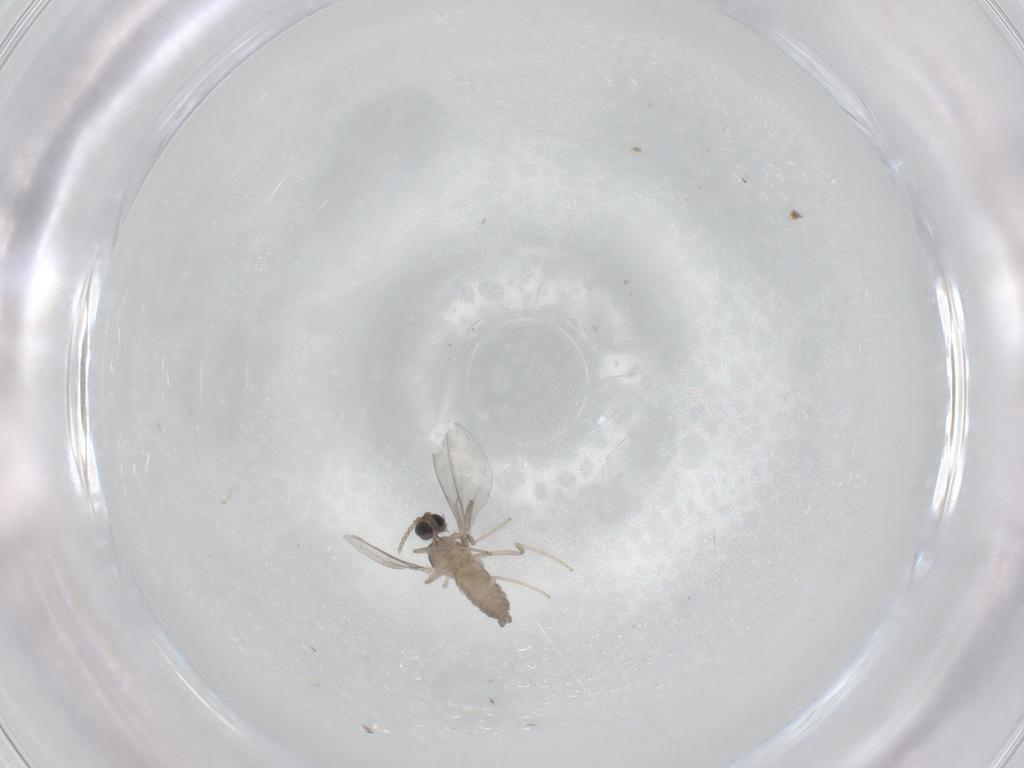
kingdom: Animalia
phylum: Arthropoda
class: Insecta
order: Diptera
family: Cecidomyiidae
